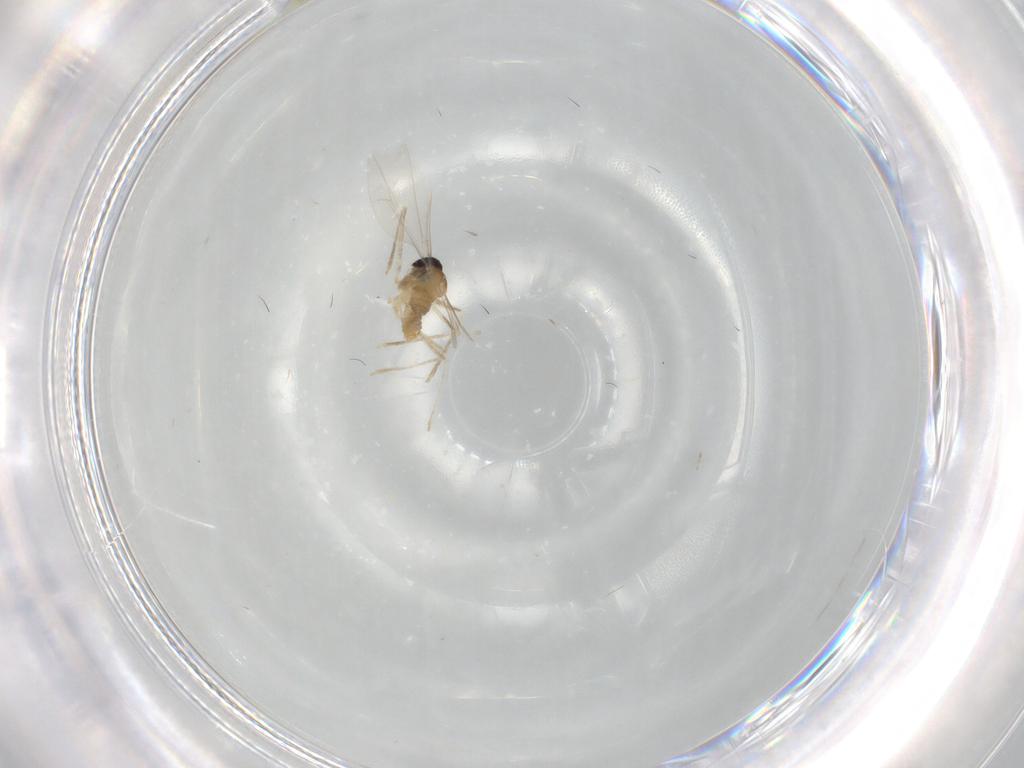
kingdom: Animalia
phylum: Arthropoda
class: Insecta
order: Diptera
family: Cecidomyiidae
